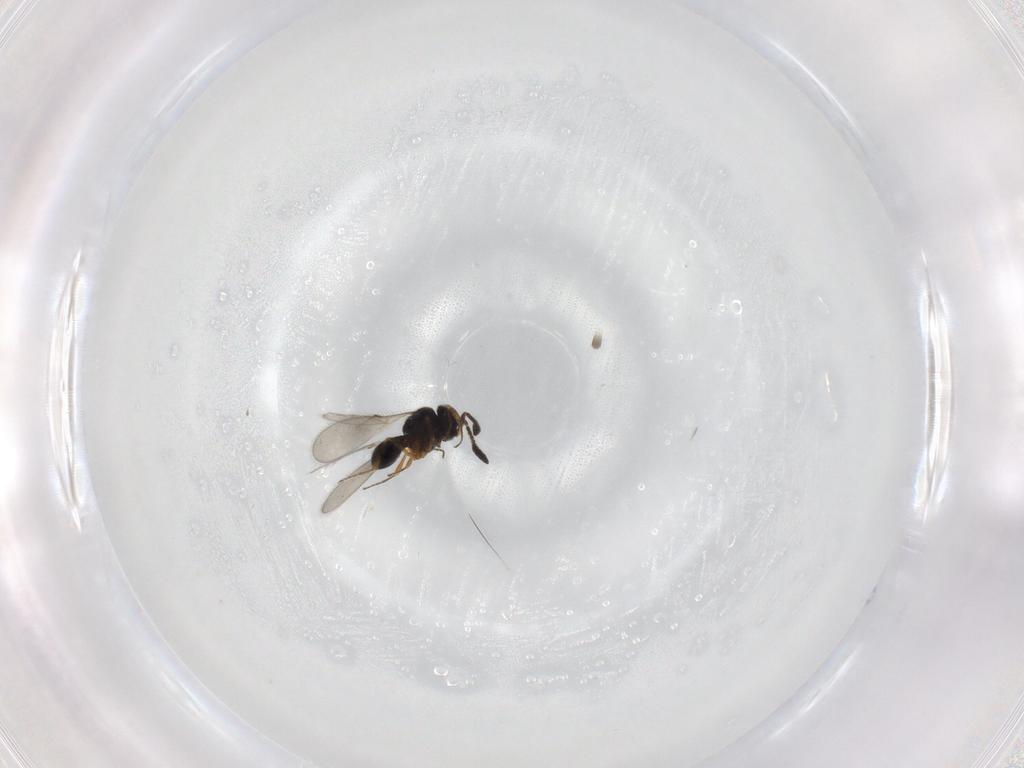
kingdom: Animalia
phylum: Arthropoda
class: Insecta
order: Hymenoptera
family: Scelionidae
